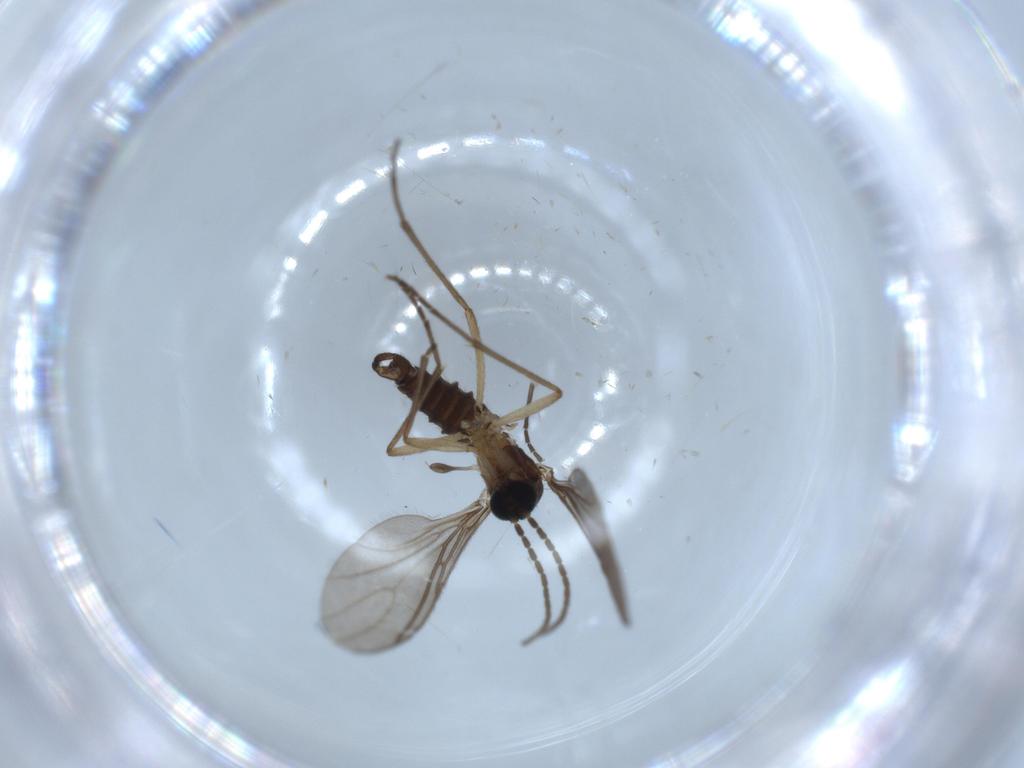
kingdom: Animalia
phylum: Arthropoda
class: Insecta
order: Diptera
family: Sciaridae
